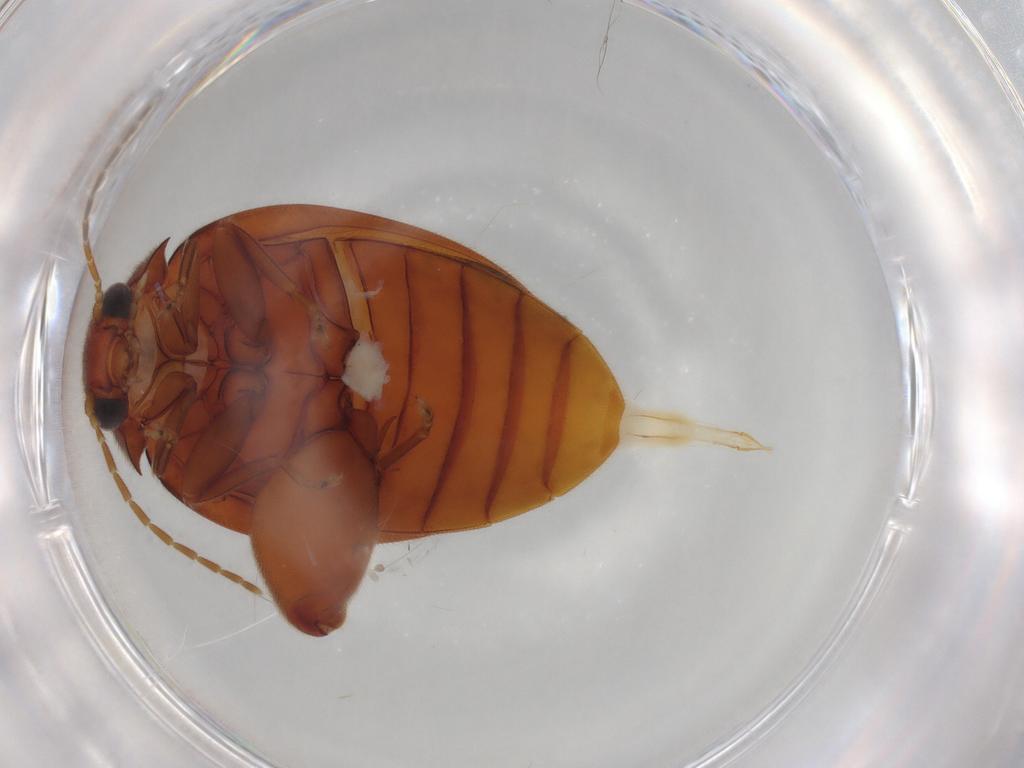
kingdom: Animalia
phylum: Arthropoda
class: Insecta
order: Coleoptera
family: Scirtidae
